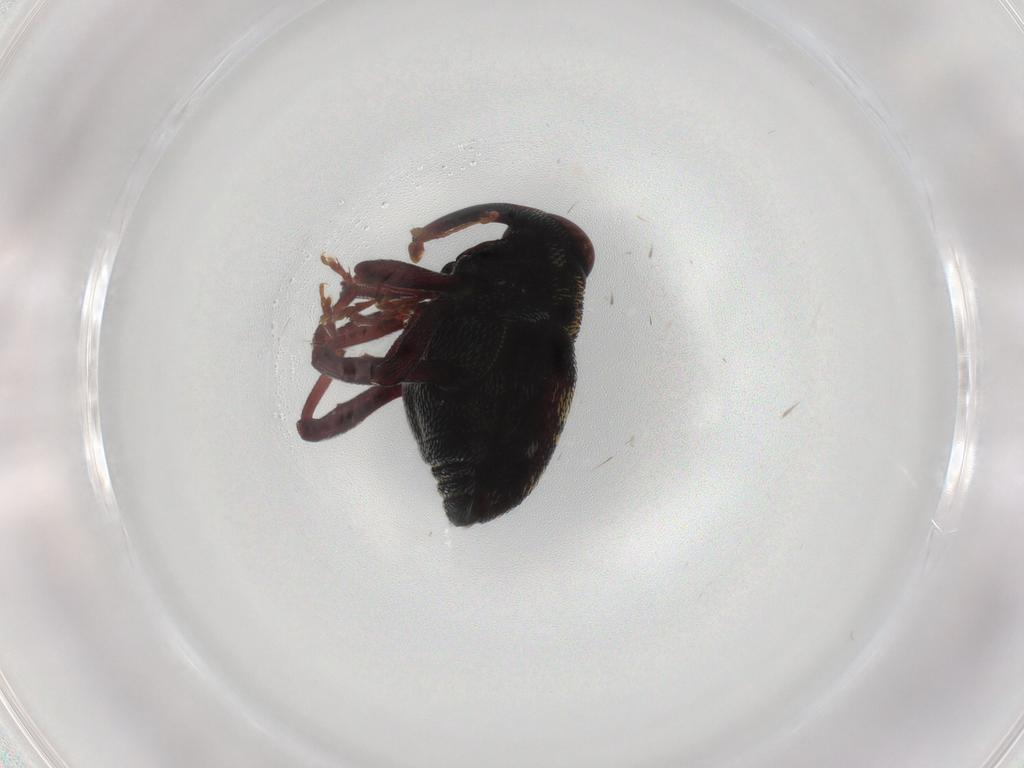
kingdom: Animalia
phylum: Arthropoda
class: Insecta
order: Coleoptera
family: Curculionidae
